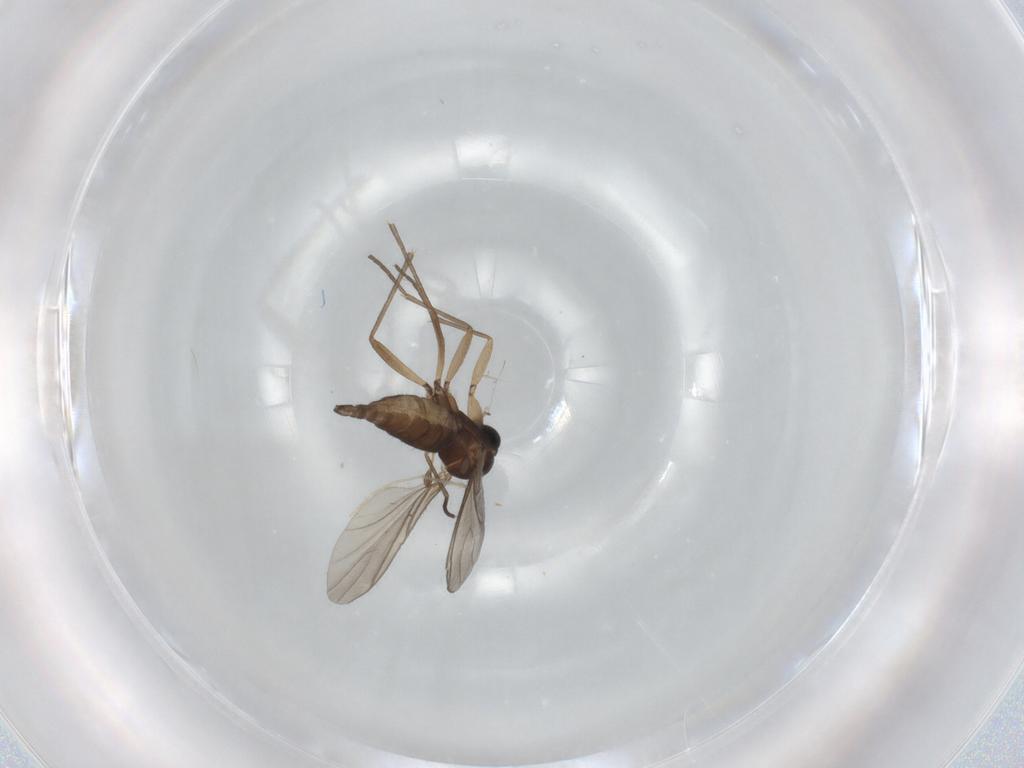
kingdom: Animalia
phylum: Arthropoda
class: Insecta
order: Diptera
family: Sciaridae
